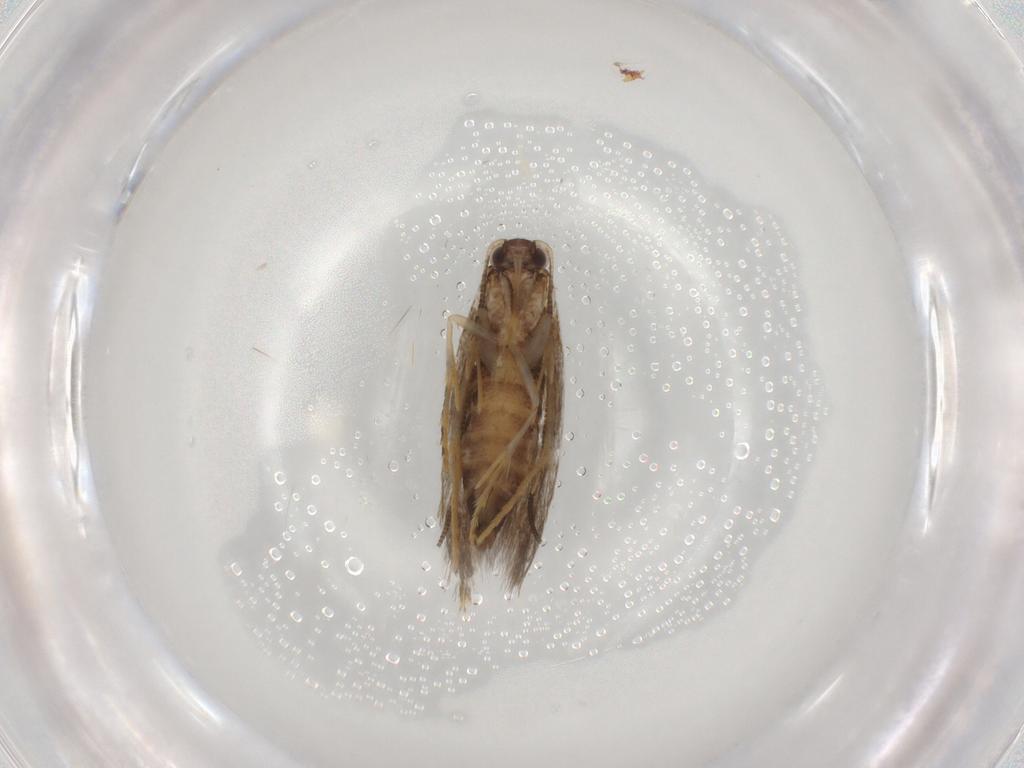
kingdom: Animalia
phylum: Arthropoda
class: Insecta
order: Lepidoptera
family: Tineidae
